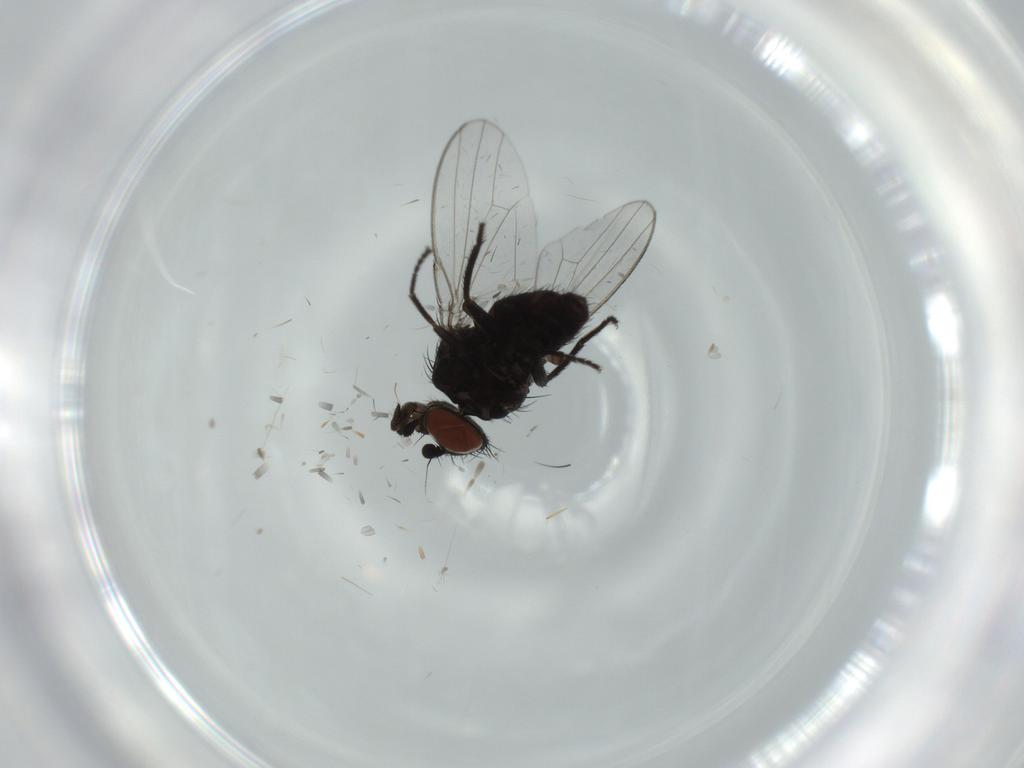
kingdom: Animalia
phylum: Arthropoda
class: Insecta
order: Diptera
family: Milichiidae
